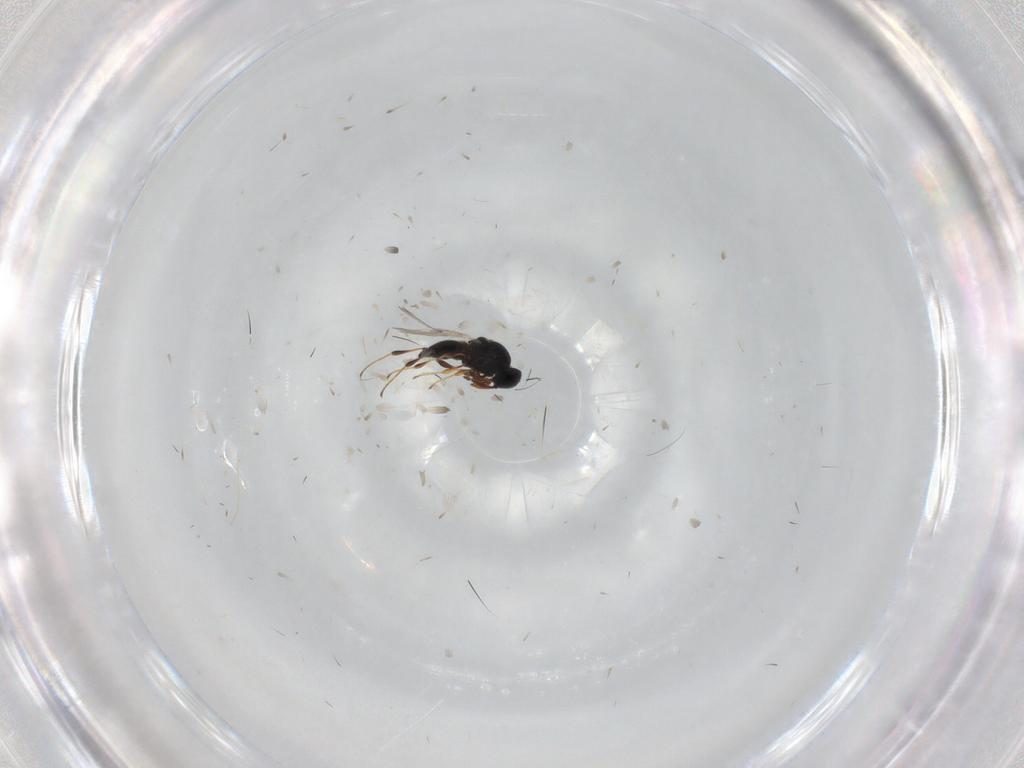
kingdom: Animalia
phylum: Arthropoda
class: Insecta
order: Hymenoptera
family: Platygastridae
